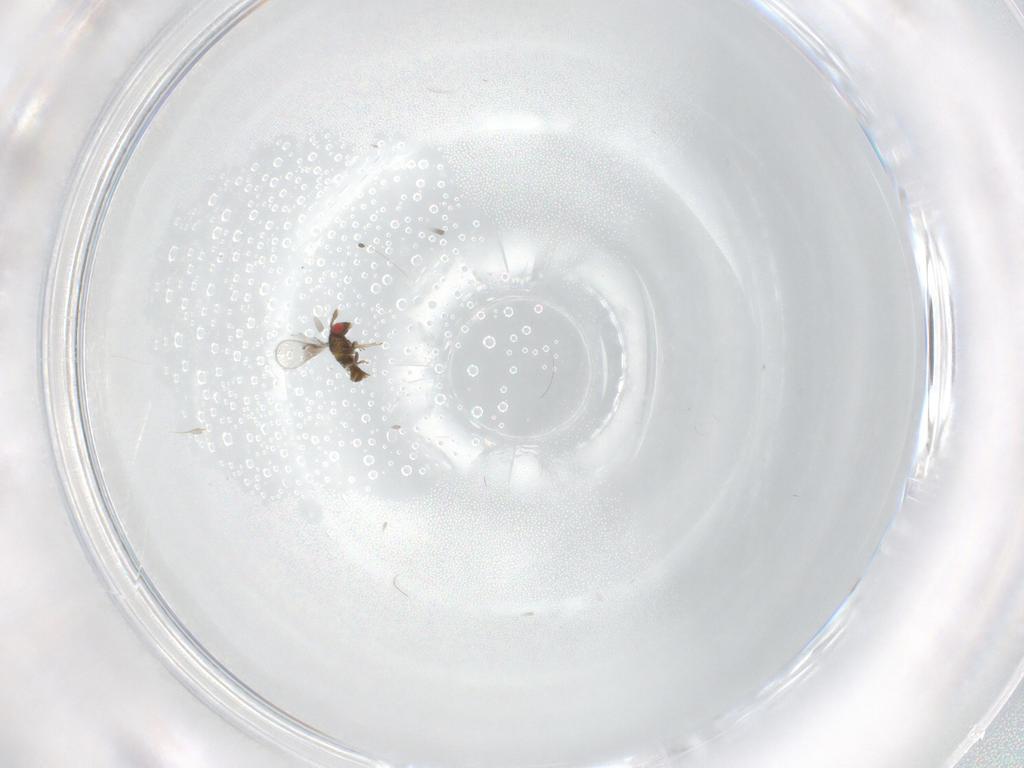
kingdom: Animalia
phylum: Arthropoda
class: Insecta
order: Hymenoptera
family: Trichogrammatidae
